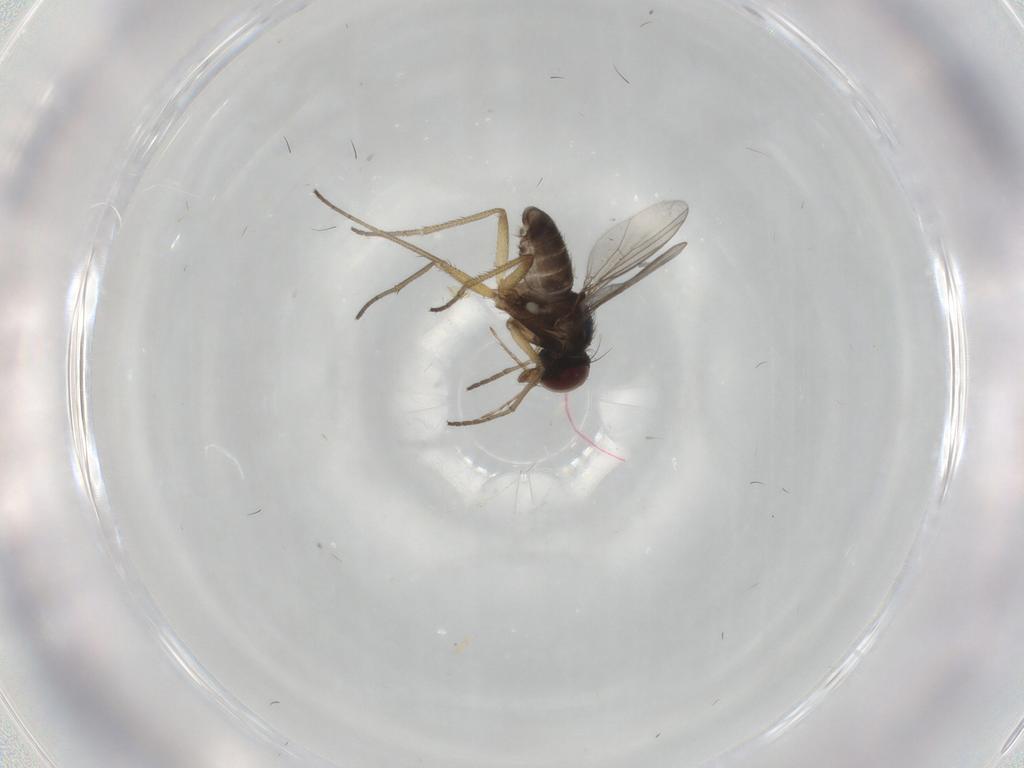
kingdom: Animalia
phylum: Arthropoda
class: Insecta
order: Diptera
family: Dolichopodidae
